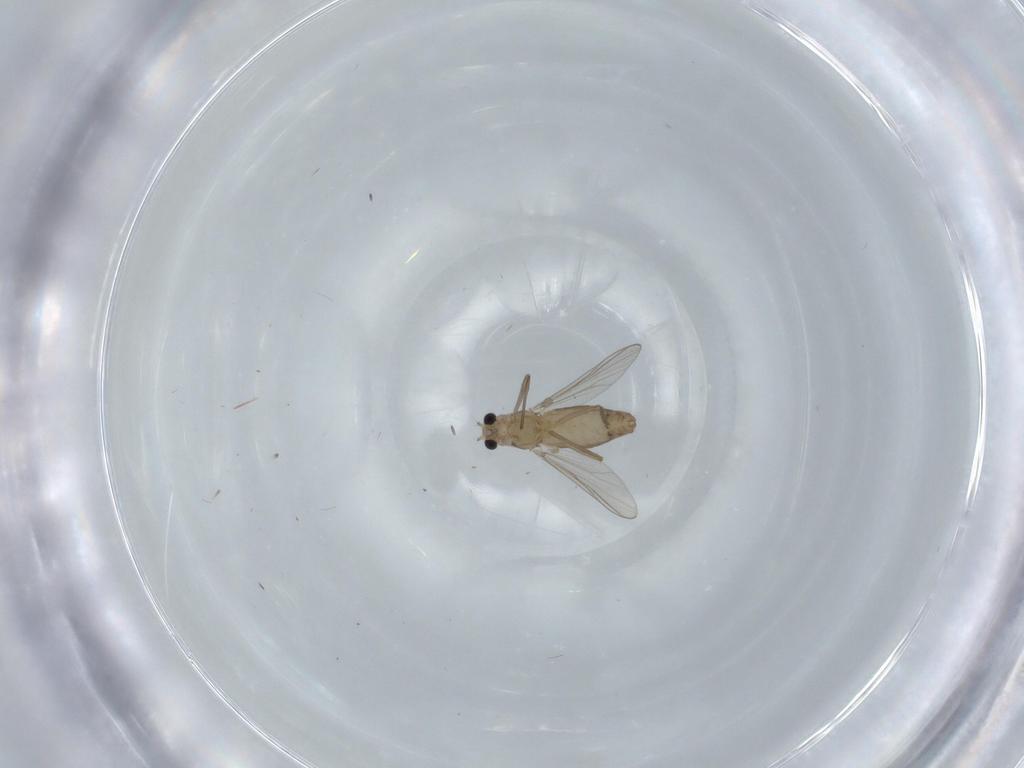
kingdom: Animalia
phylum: Arthropoda
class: Insecta
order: Diptera
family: Chironomidae
